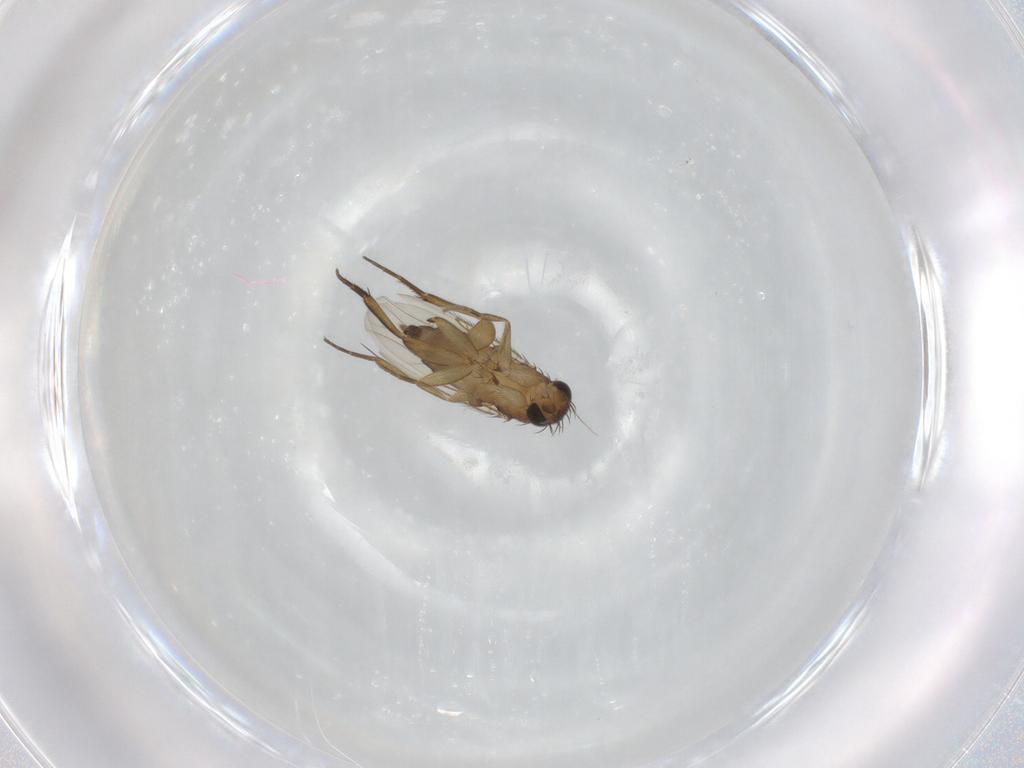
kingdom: Animalia
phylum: Arthropoda
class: Insecta
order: Diptera
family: Phoridae
